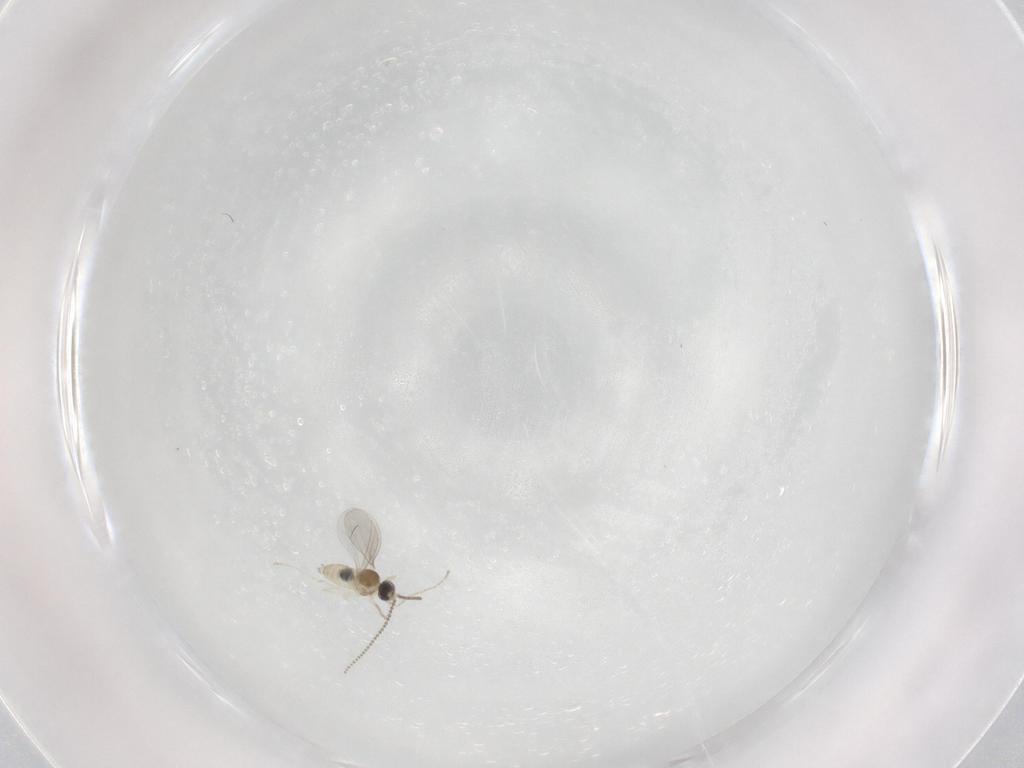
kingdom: Animalia
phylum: Arthropoda
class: Insecta
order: Diptera
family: Cecidomyiidae
